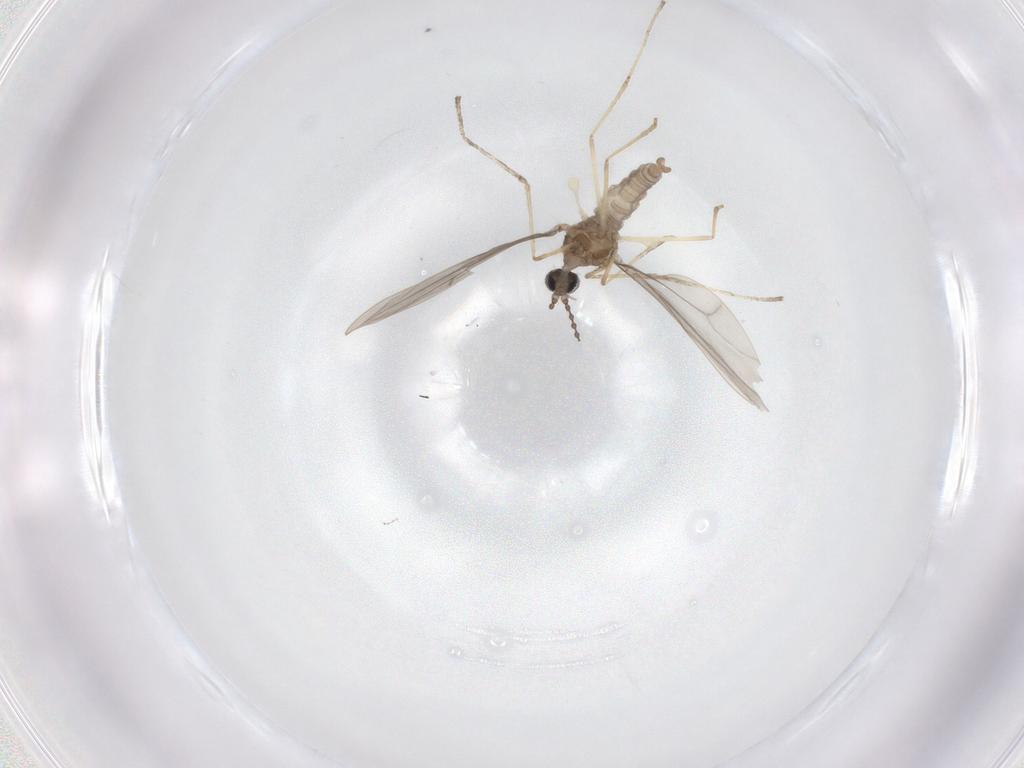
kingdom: Animalia
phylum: Arthropoda
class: Insecta
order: Diptera
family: Cecidomyiidae
